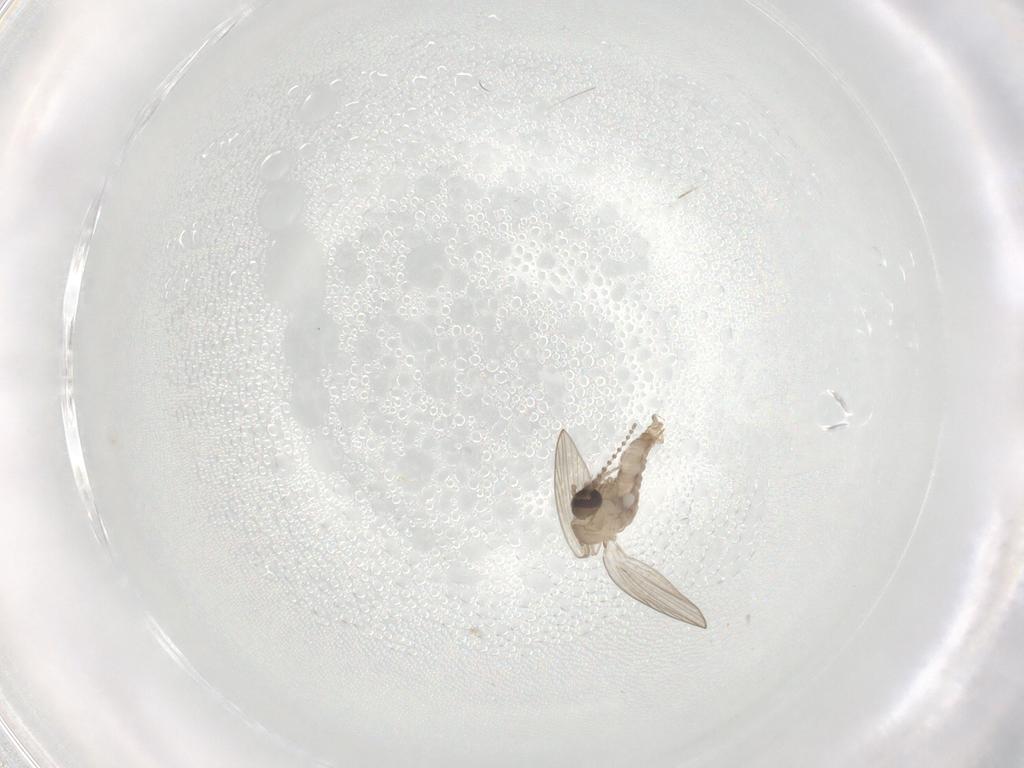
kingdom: Animalia
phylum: Arthropoda
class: Insecta
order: Diptera
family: Psychodidae
